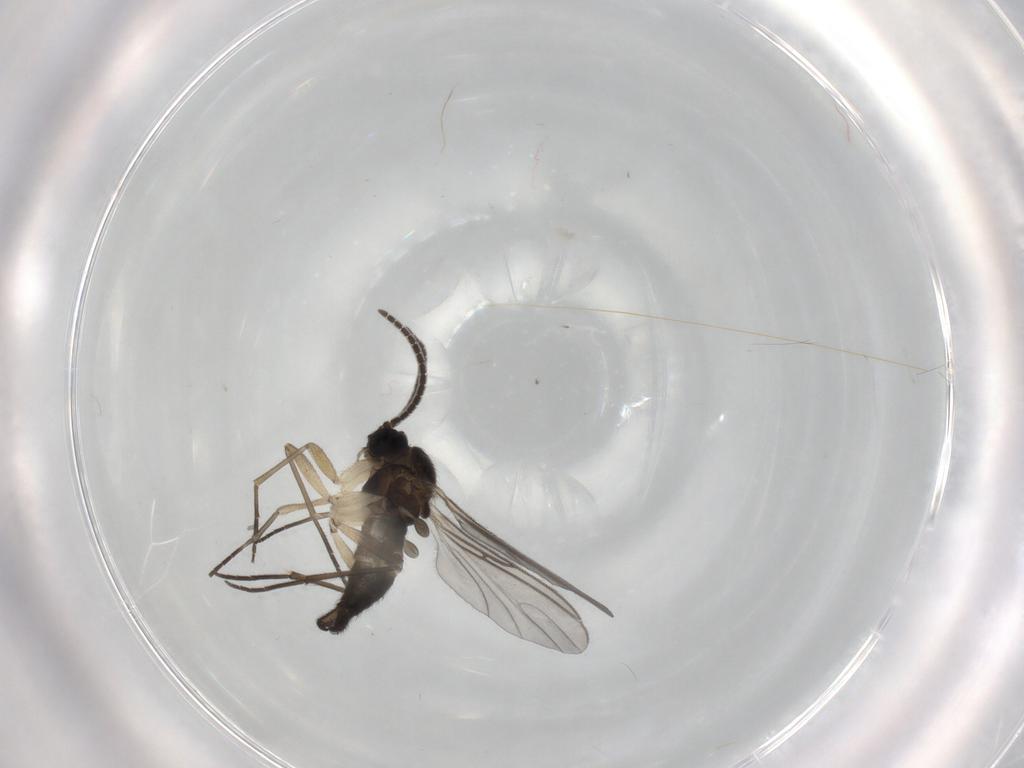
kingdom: Animalia
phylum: Arthropoda
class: Insecta
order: Diptera
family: Sciaridae
